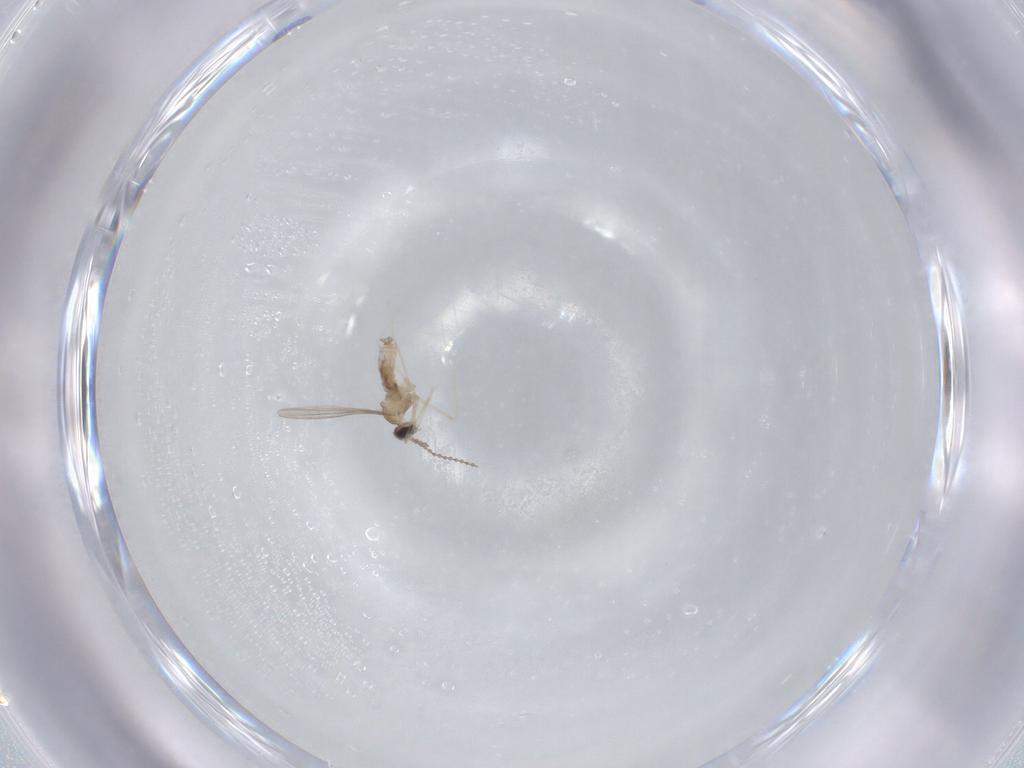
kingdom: Animalia
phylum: Arthropoda
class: Insecta
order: Diptera
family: Cecidomyiidae
